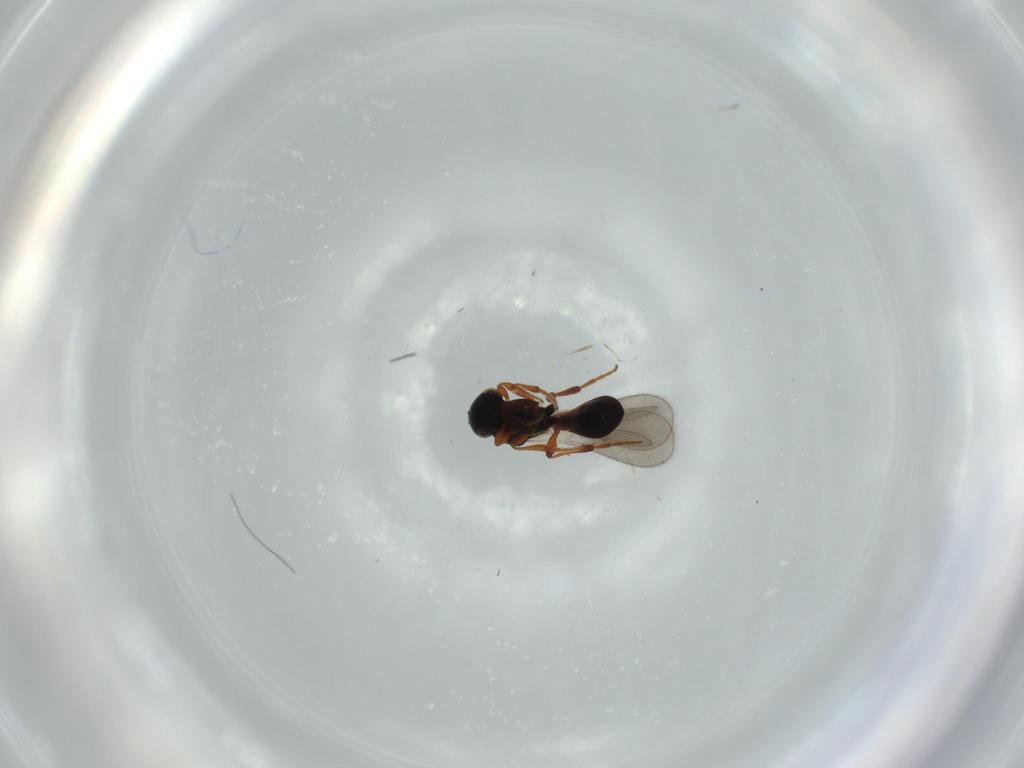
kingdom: Animalia
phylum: Arthropoda
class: Insecta
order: Hymenoptera
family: Platygastridae
